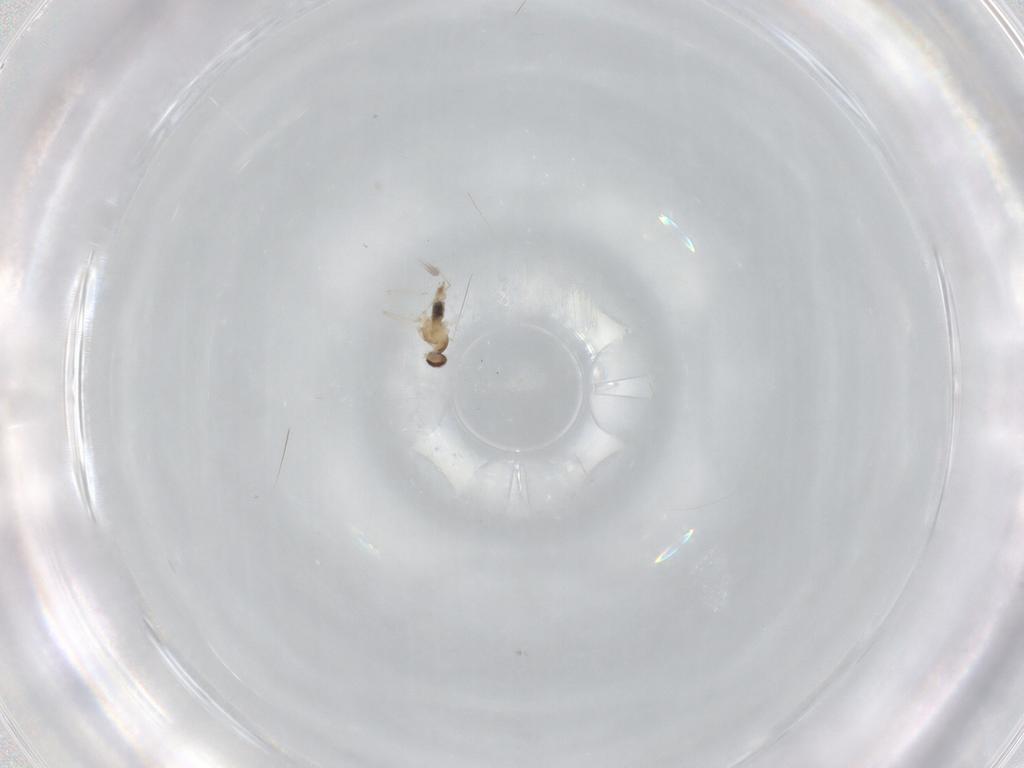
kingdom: Animalia
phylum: Arthropoda
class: Insecta
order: Diptera
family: Cecidomyiidae
